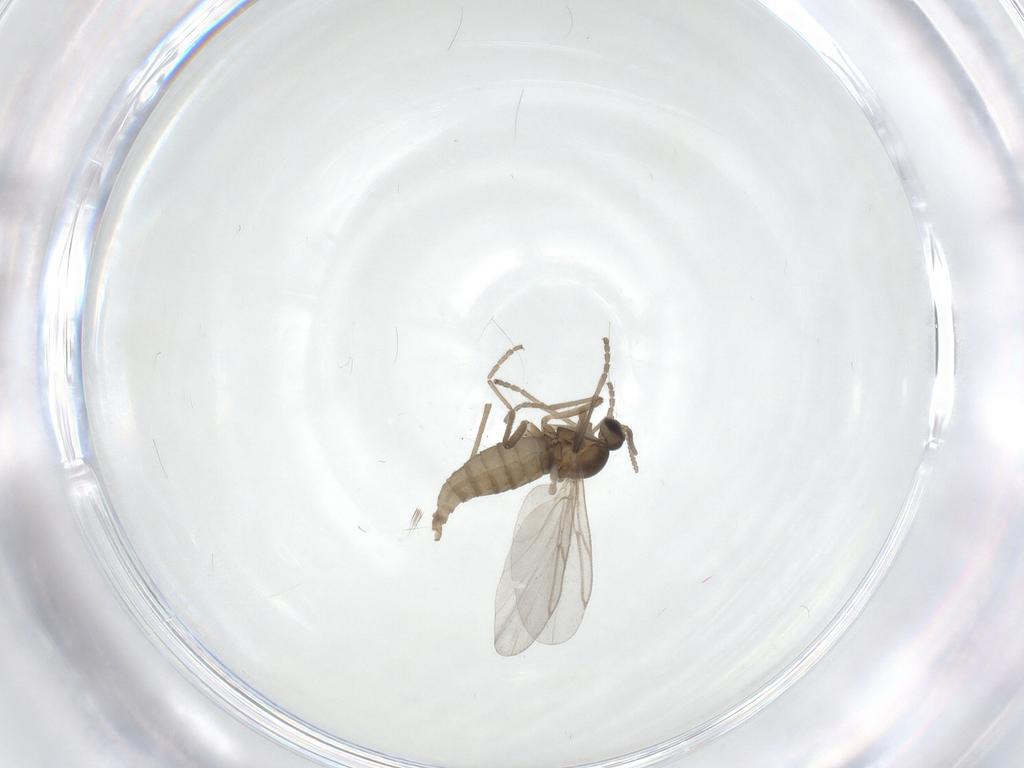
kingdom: Animalia
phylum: Arthropoda
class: Insecta
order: Diptera
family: Cecidomyiidae
